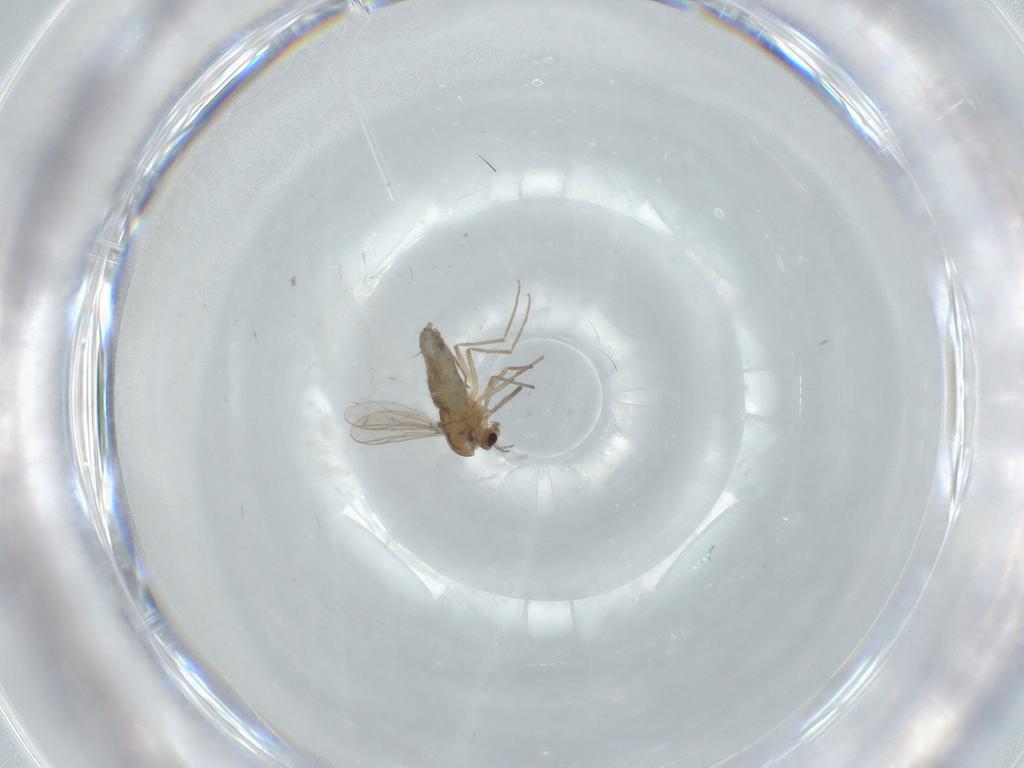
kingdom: Animalia
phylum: Arthropoda
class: Insecta
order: Diptera
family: Chironomidae
